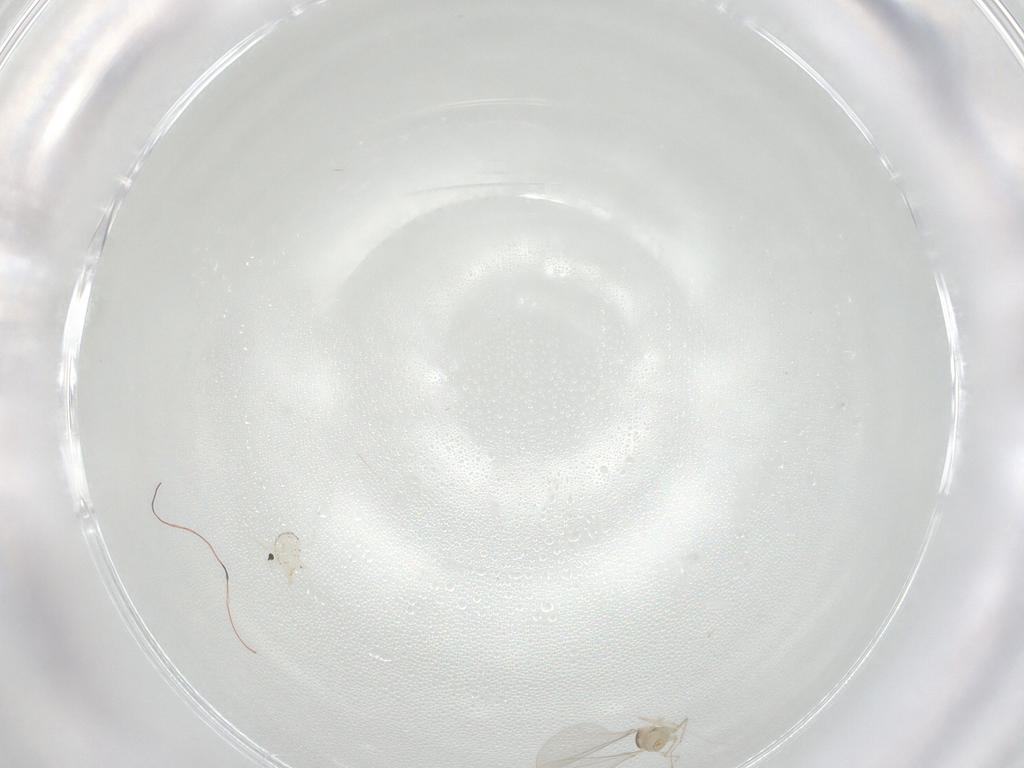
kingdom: Animalia
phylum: Arthropoda
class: Insecta
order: Diptera
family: Cecidomyiidae
